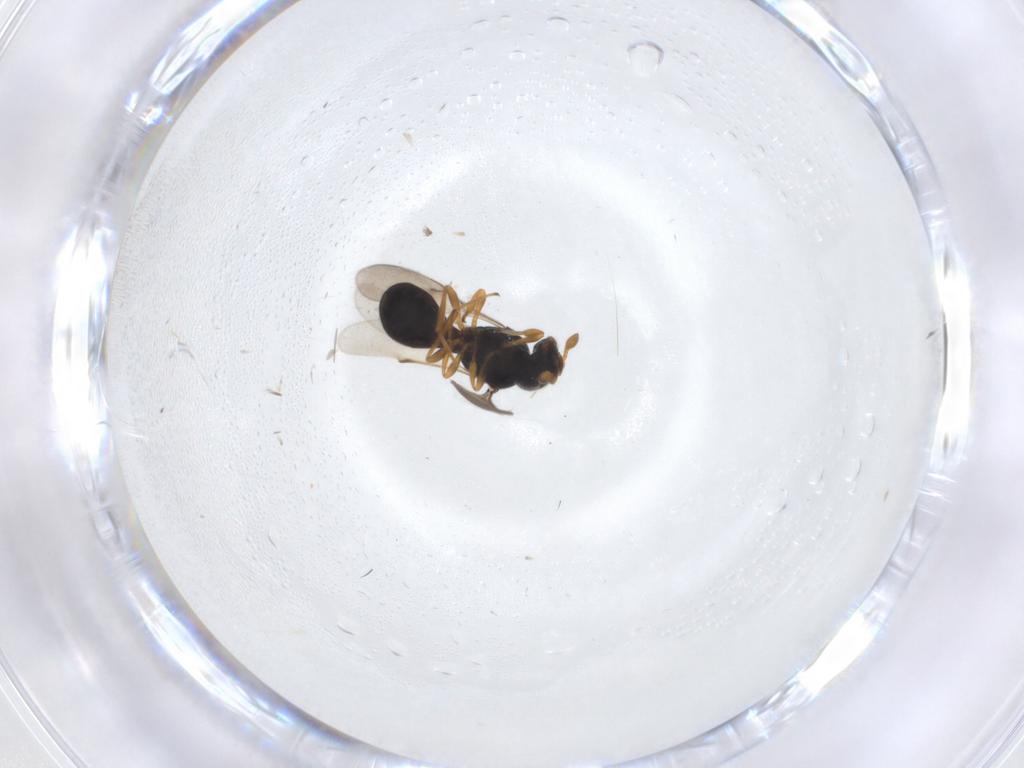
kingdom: Animalia
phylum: Arthropoda
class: Insecta
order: Hymenoptera
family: Scelionidae
